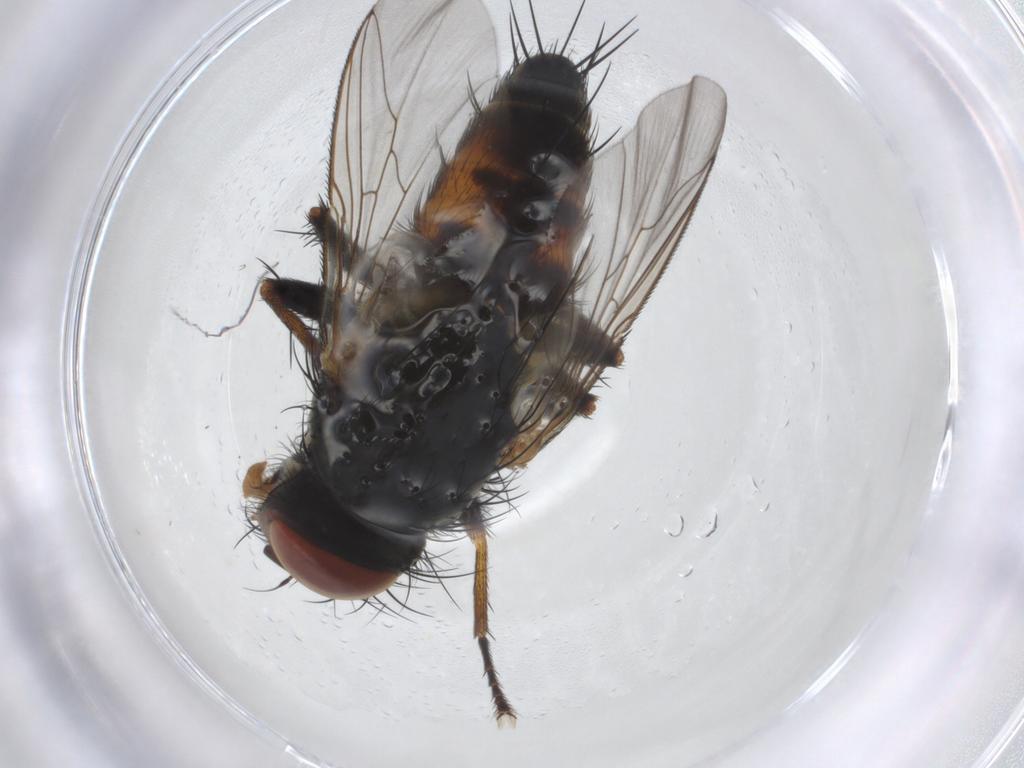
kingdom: Animalia
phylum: Arthropoda
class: Insecta
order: Diptera
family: Sarcophagidae
